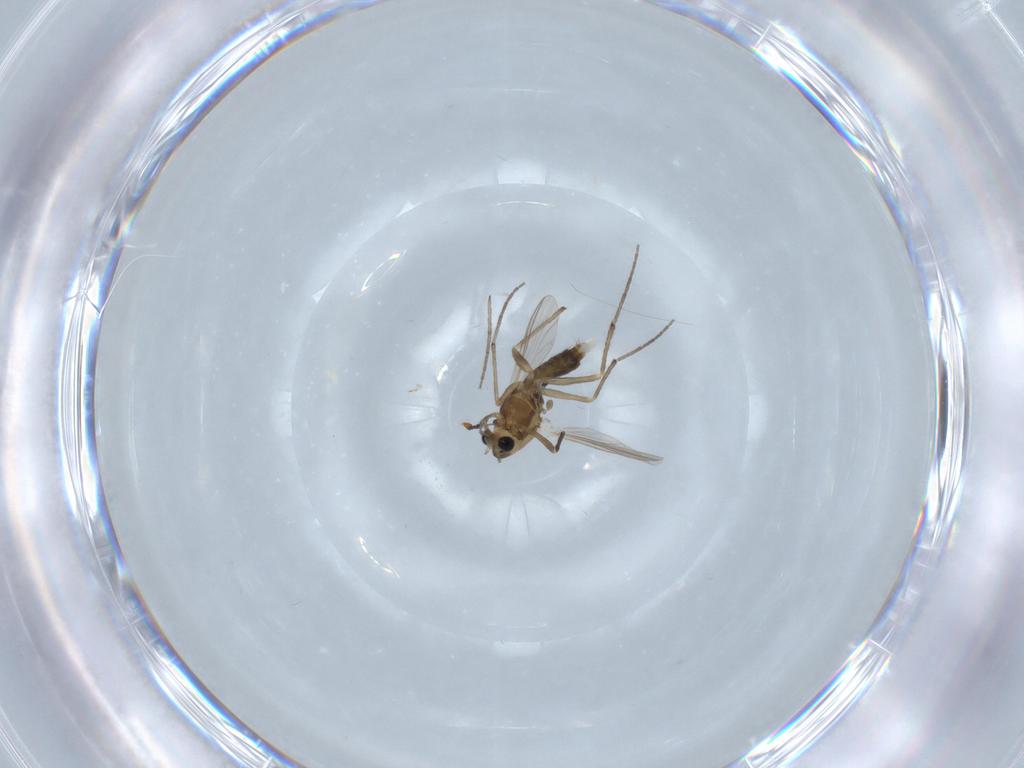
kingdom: Animalia
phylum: Arthropoda
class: Insecta
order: Diptera
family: Chironomidae
